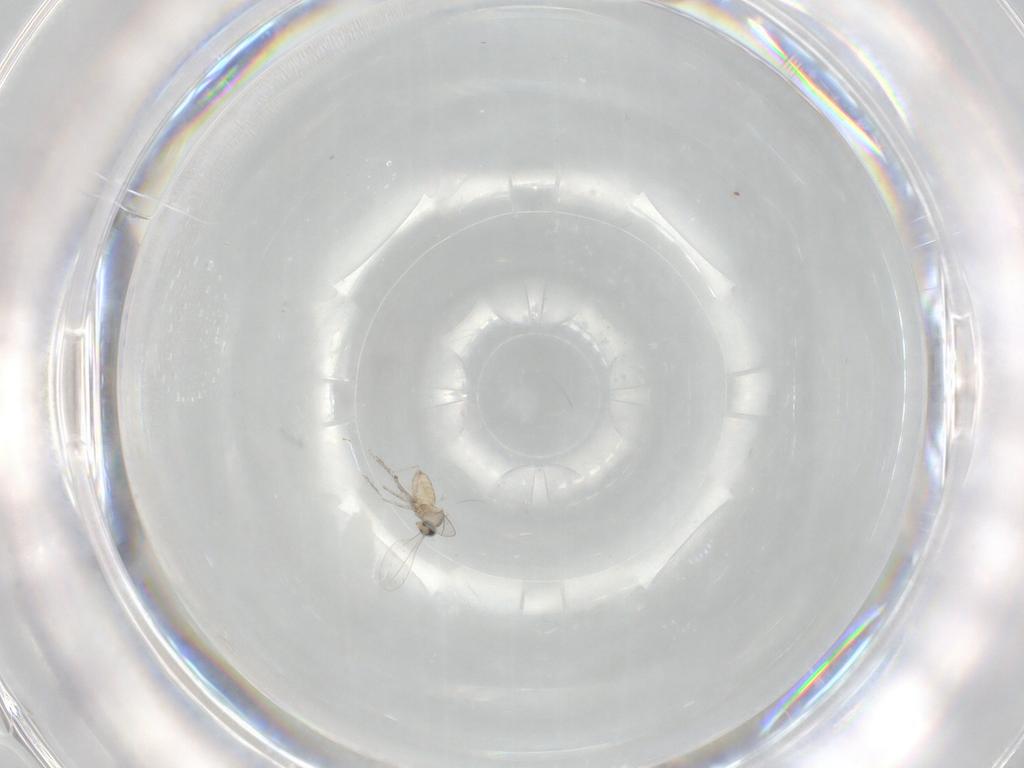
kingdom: Animalia
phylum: Arthropoda
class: Insecta
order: Diptera
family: Cecidomyiidae
